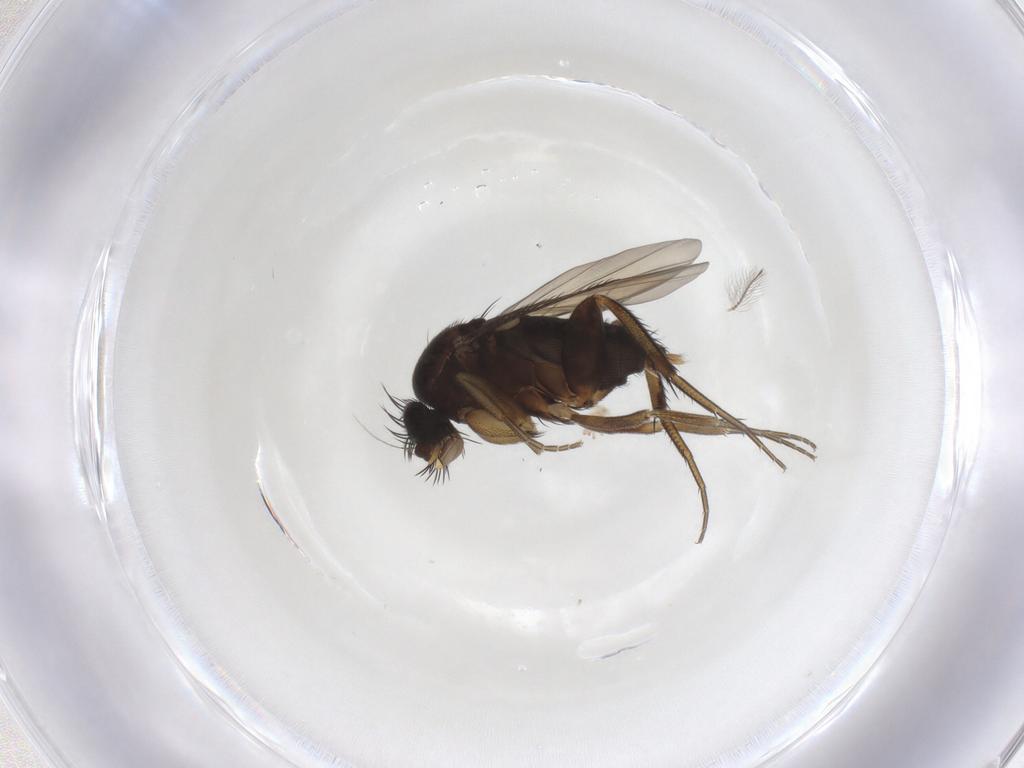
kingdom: Animalia
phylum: Arthropoda
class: Insecta
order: Diptera
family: Phoridae
